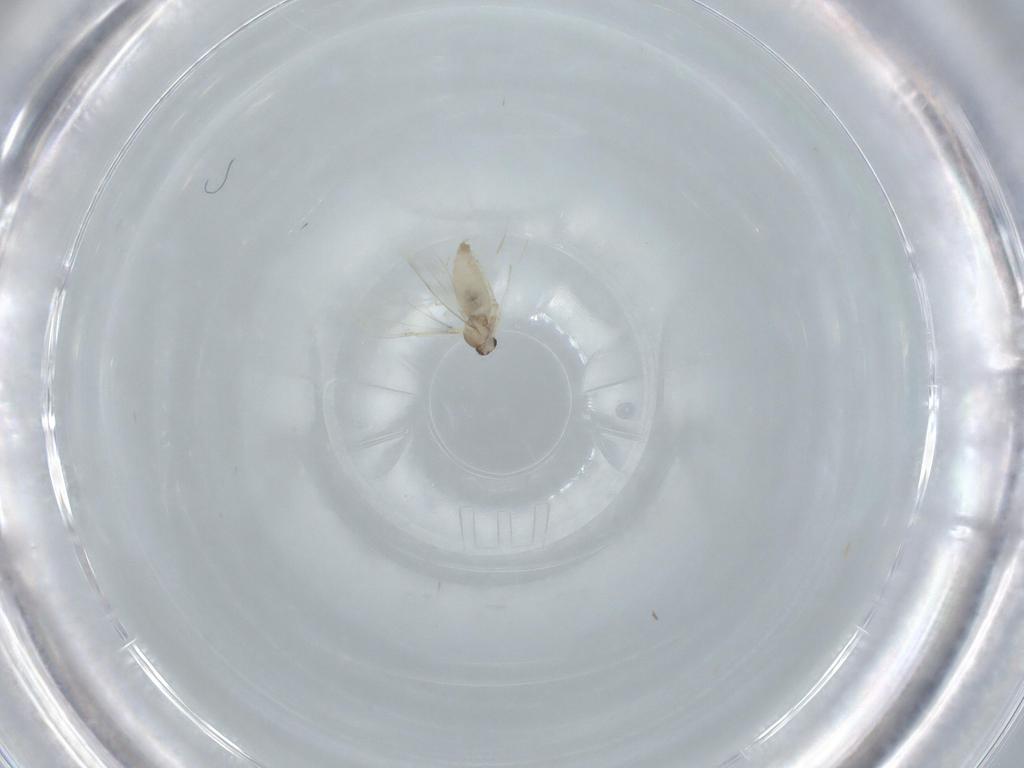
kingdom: Animalia
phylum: Arthropoda
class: Insecta
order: Diptera
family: Cecidomyiidae
